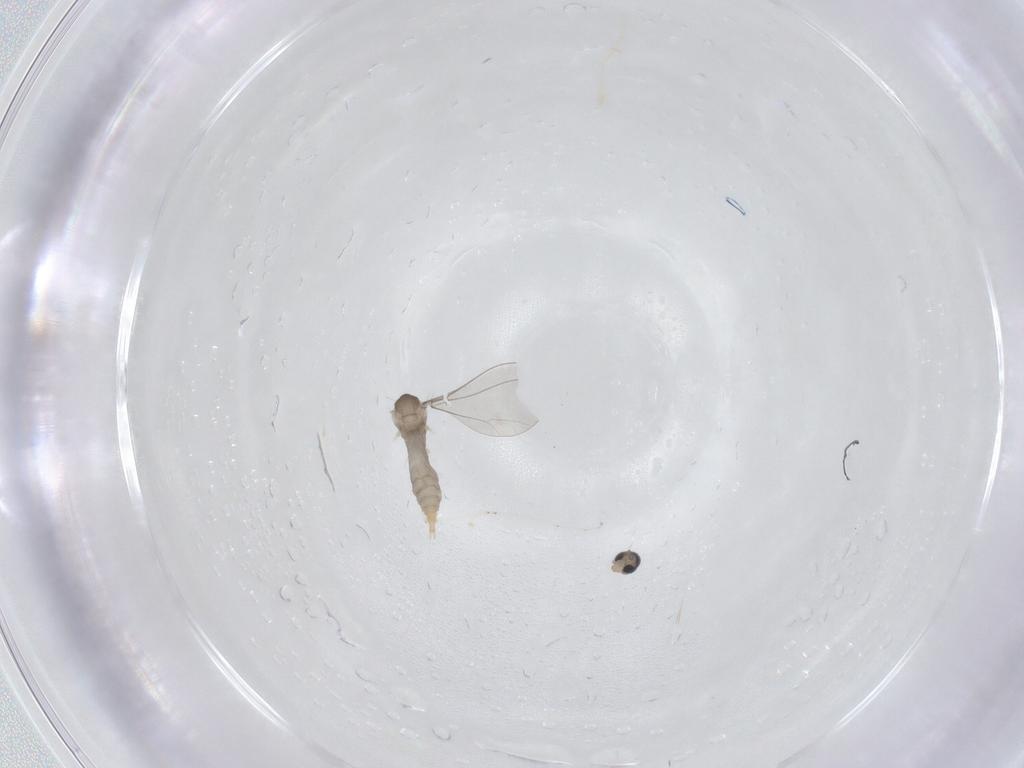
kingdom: Animalia
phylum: Arthropoda
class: Insecta
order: Diptera
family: Cecidomyiidae
